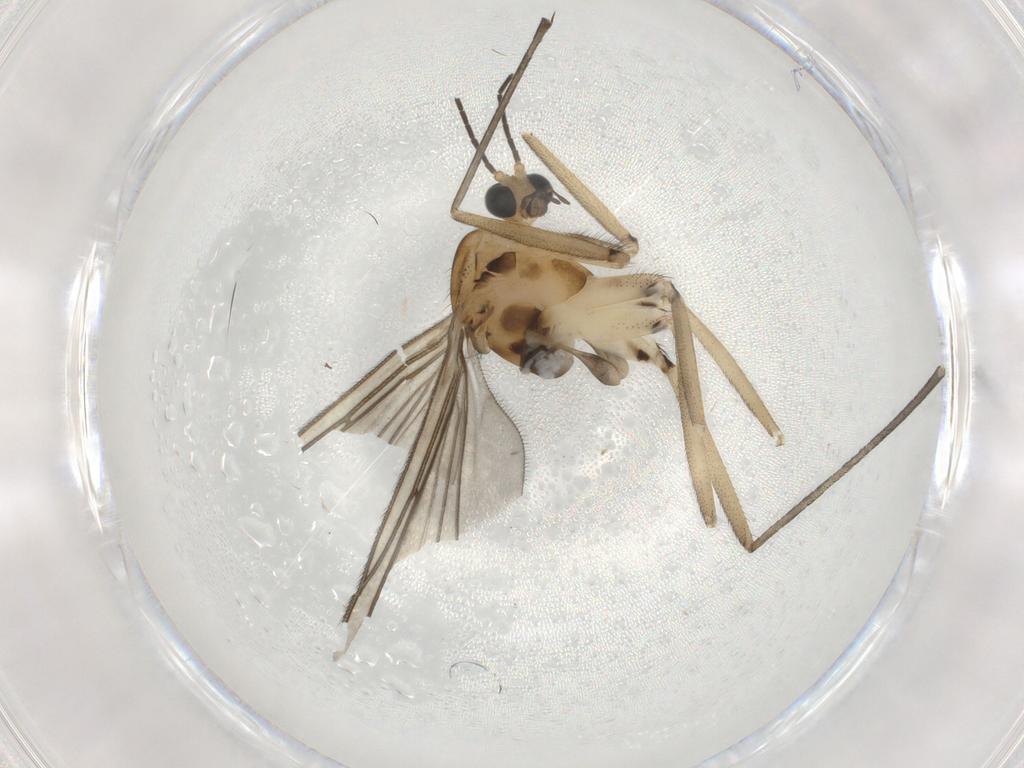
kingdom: Animalia
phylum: Arthropoda
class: Insecta
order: Diptera
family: Sciaridae
